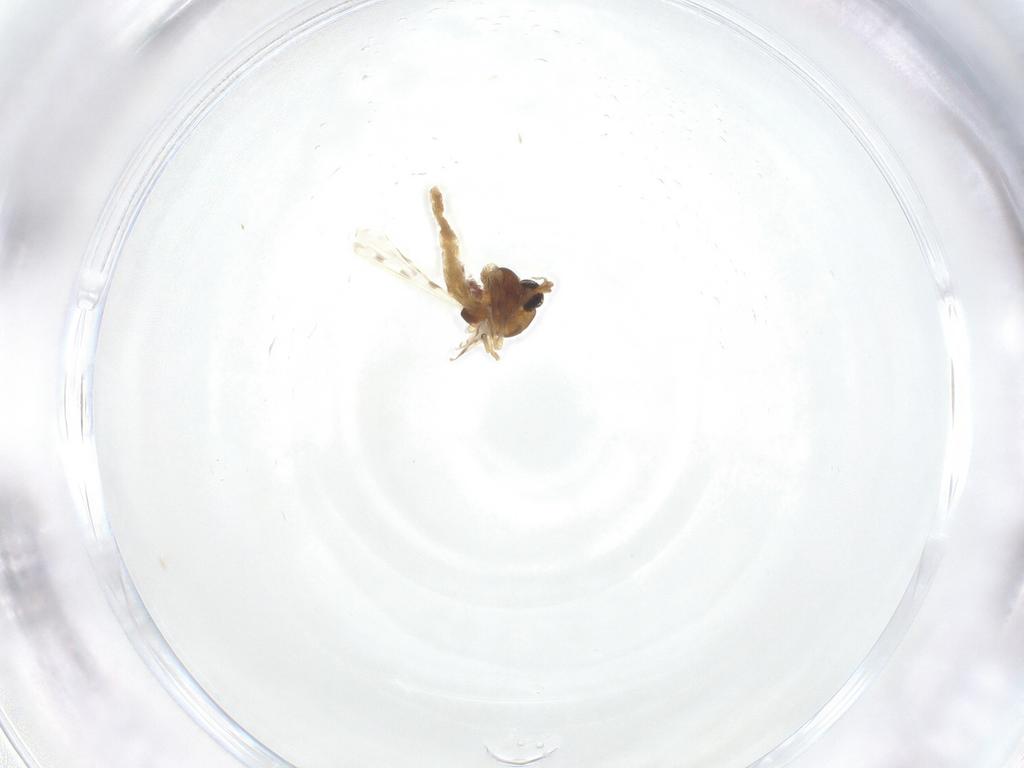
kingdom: Animalia
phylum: Arthropoda
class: Insecta
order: Diptera
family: Chironomidae
